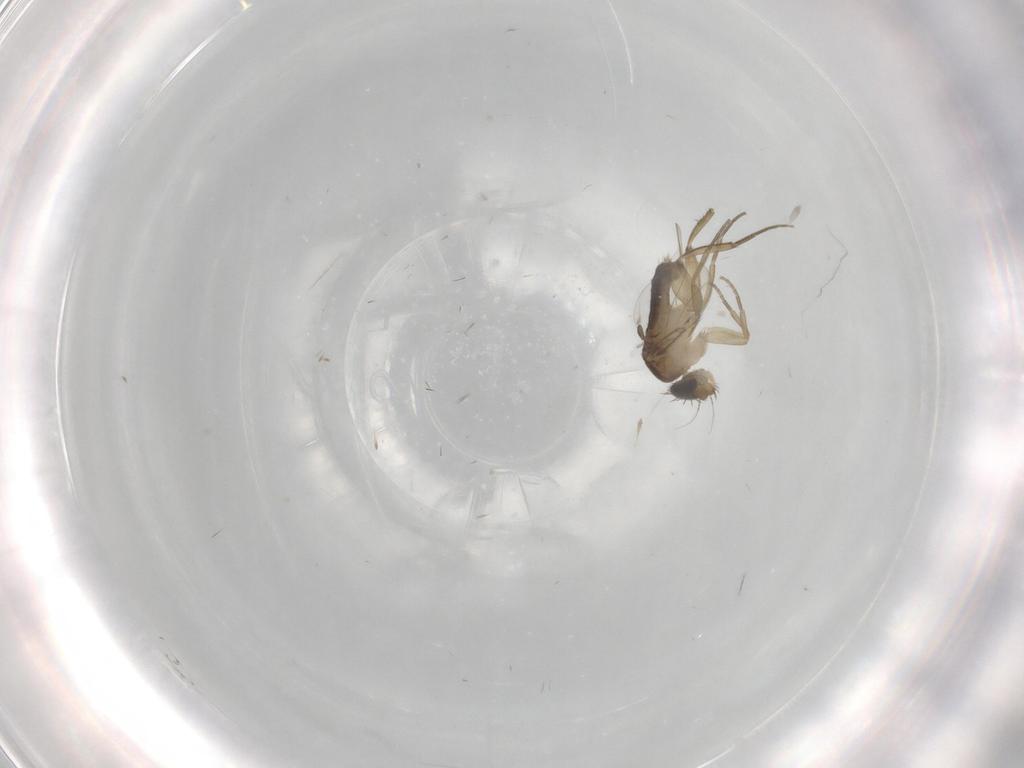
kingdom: Animalia
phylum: Arthropoda
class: Insecta
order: Diptera
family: Phoridae
